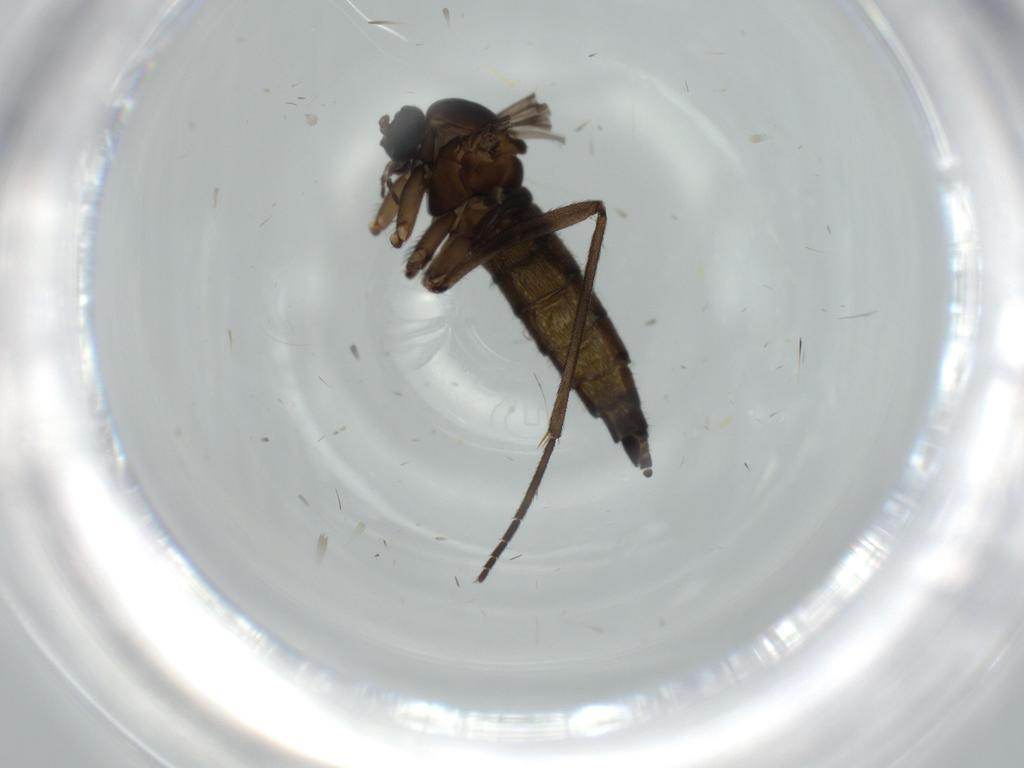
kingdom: Animalia
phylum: Arthropoda
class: Insecta
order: Diptera
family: Sciaridae
